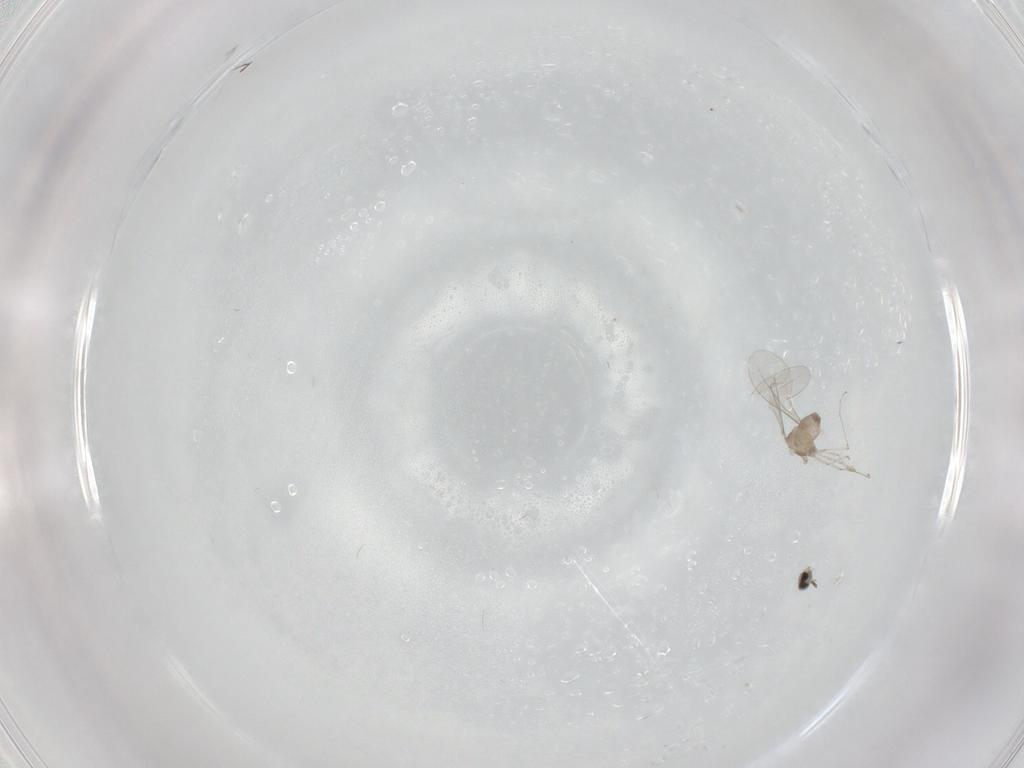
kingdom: Animalia
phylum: Arthropoda
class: Insecta
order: Diptera
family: Cecidomyiidae
